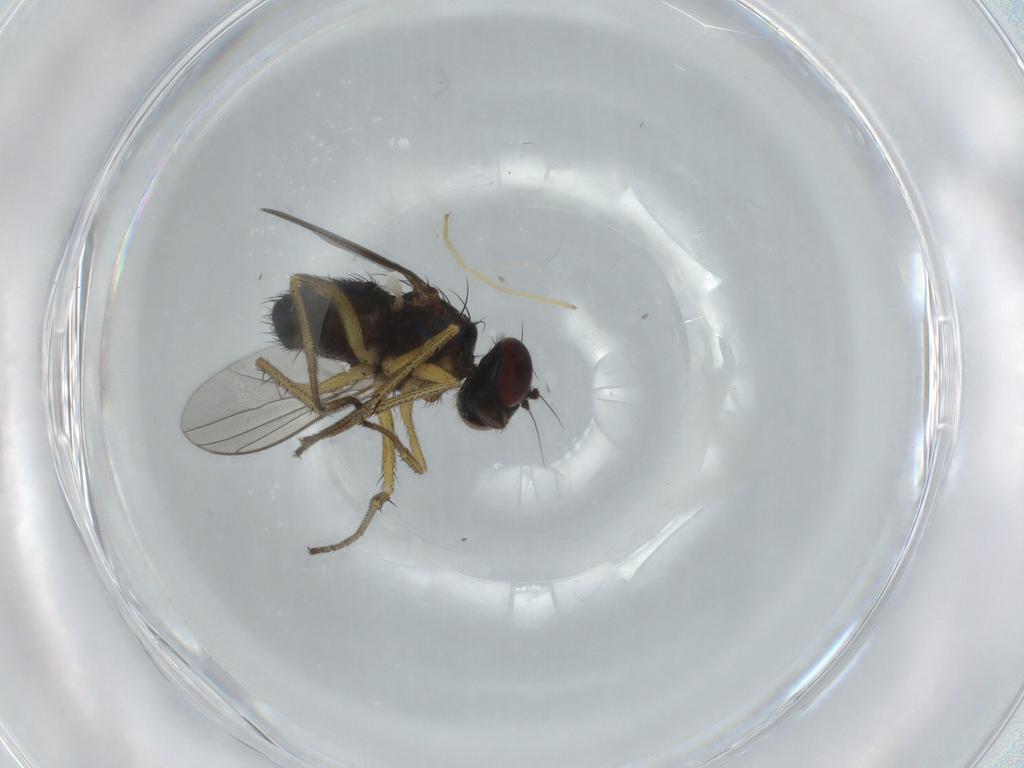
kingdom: Animalia
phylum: Arthropoda
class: Insecta
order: Diptera
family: Dolichopodidae
